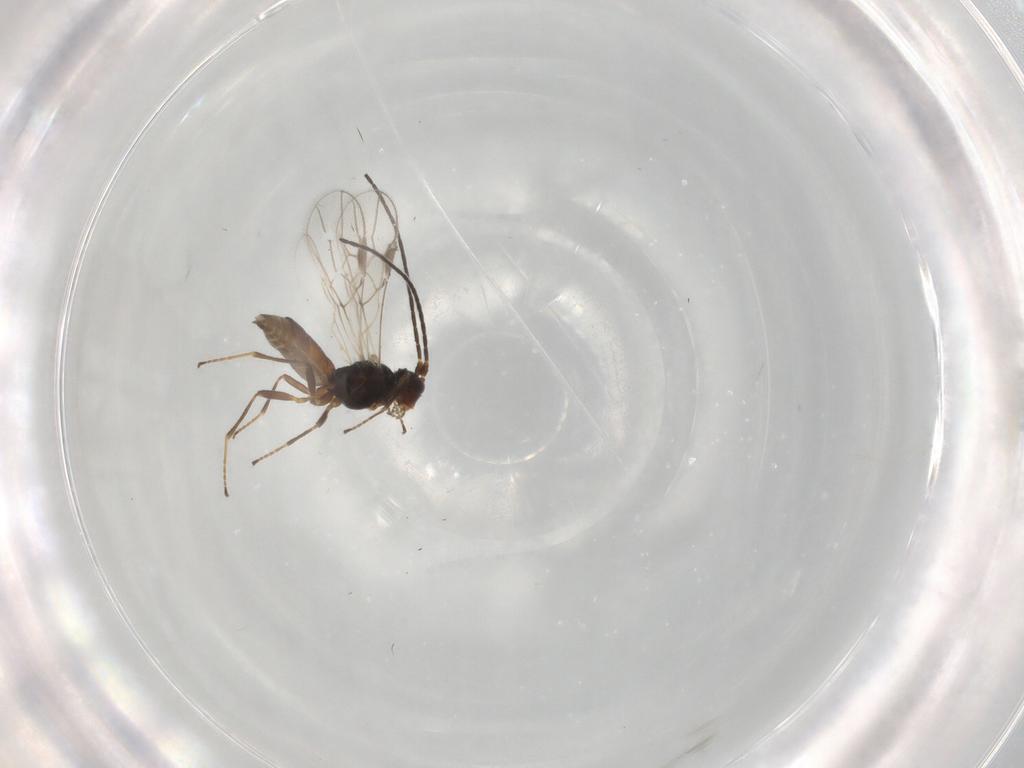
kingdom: Animalia
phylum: Arthropoda
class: Insecta
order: Hymenoptera
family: Braconidae
